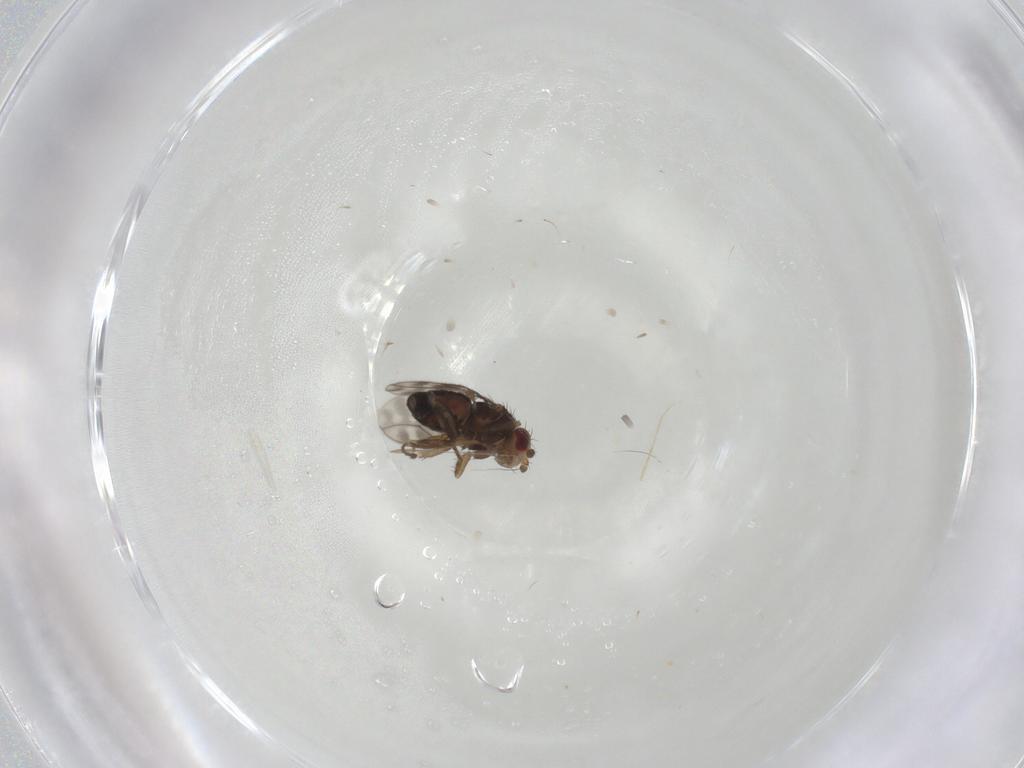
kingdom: Animalia
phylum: Arthropoda
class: Insecta
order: Diptera
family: Sphaeroceridae
